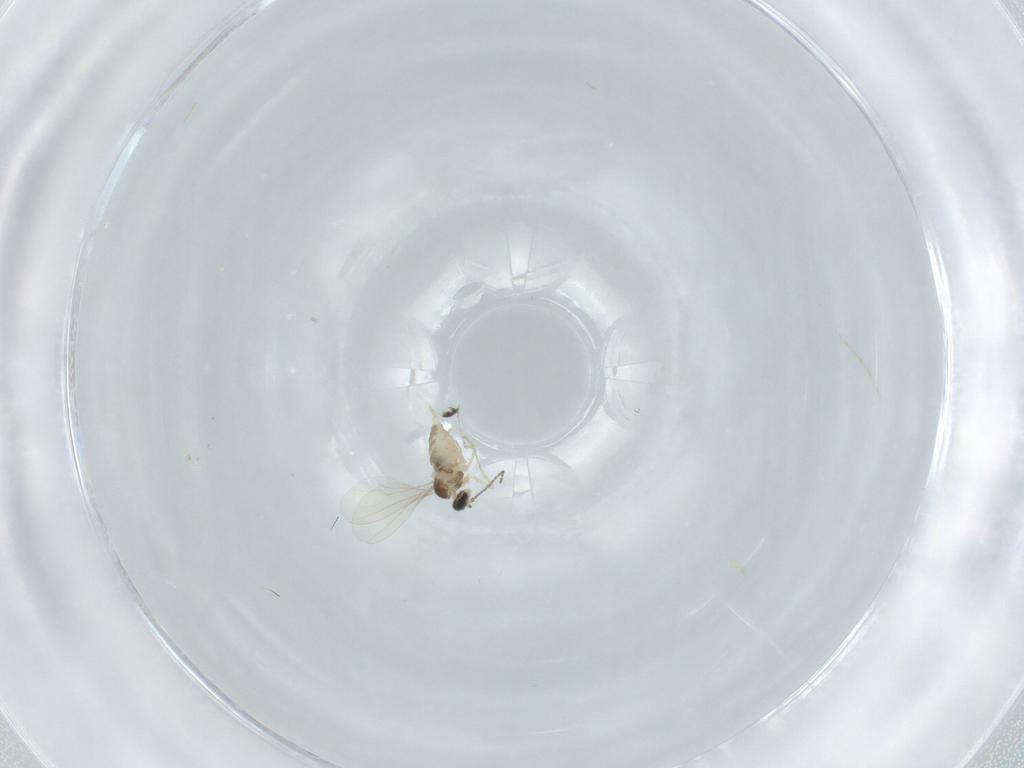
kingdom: Animalia
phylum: Arthropoda
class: Insecta
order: Diptera
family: Cecidomyiidae
